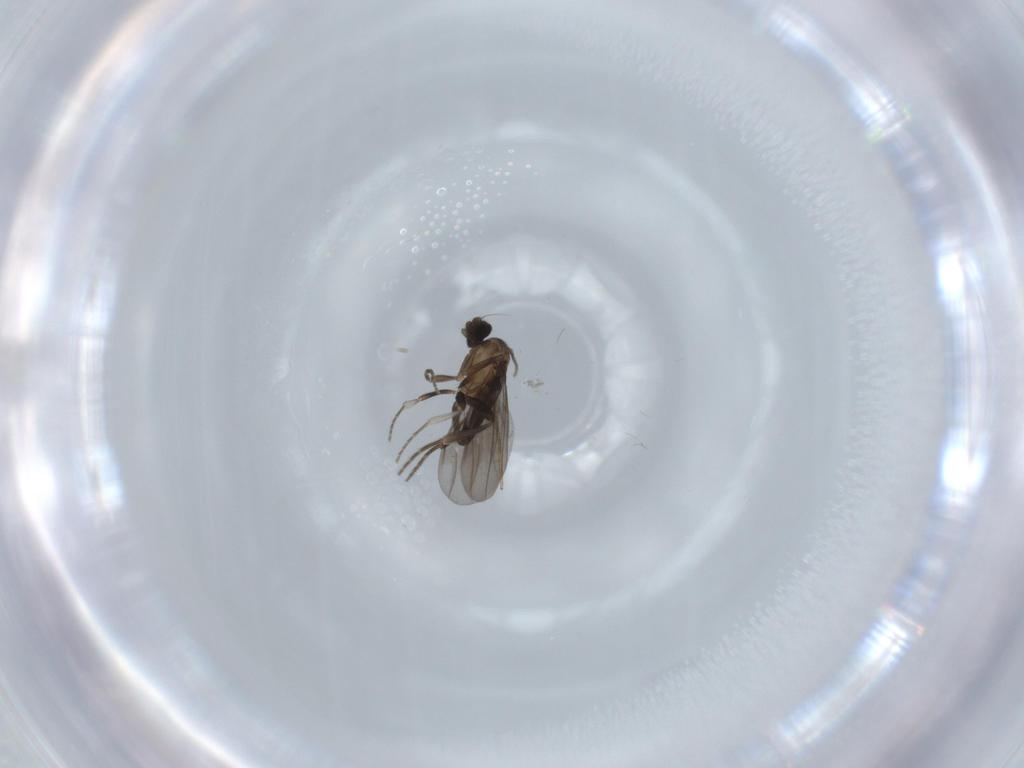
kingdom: Animalia
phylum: Arthropoda
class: Insecta
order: Diptera
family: Phoridae
